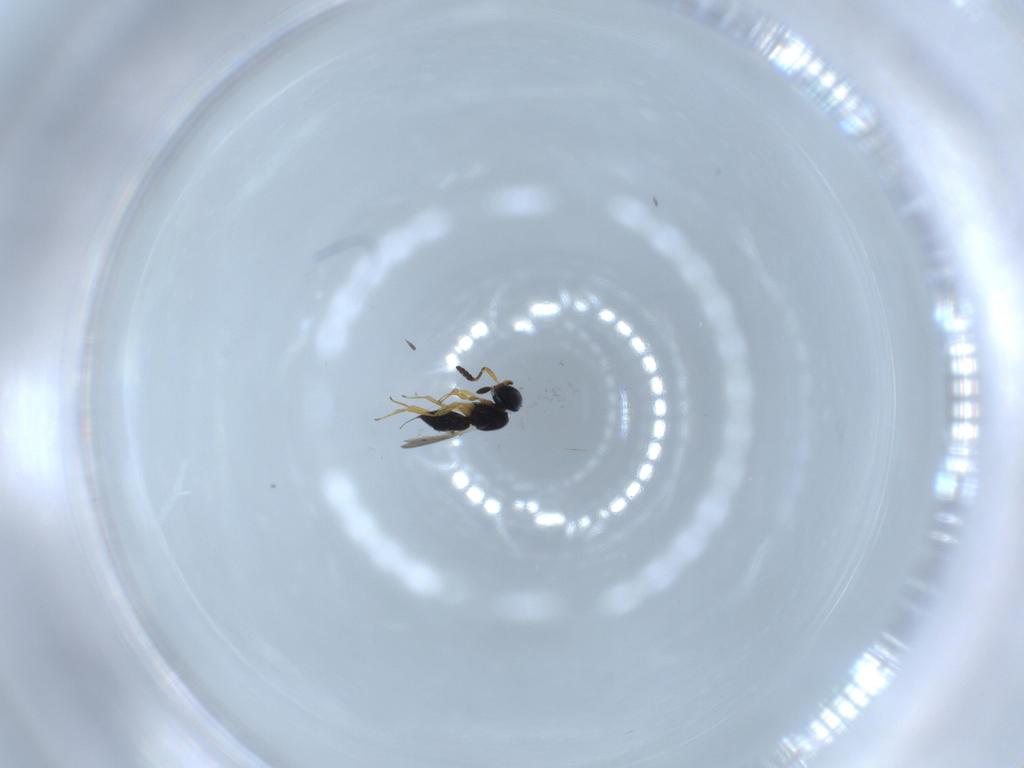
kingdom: Animalia
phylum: Arthropoda
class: Insecta
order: Hymenoptera
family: Scelionidae
